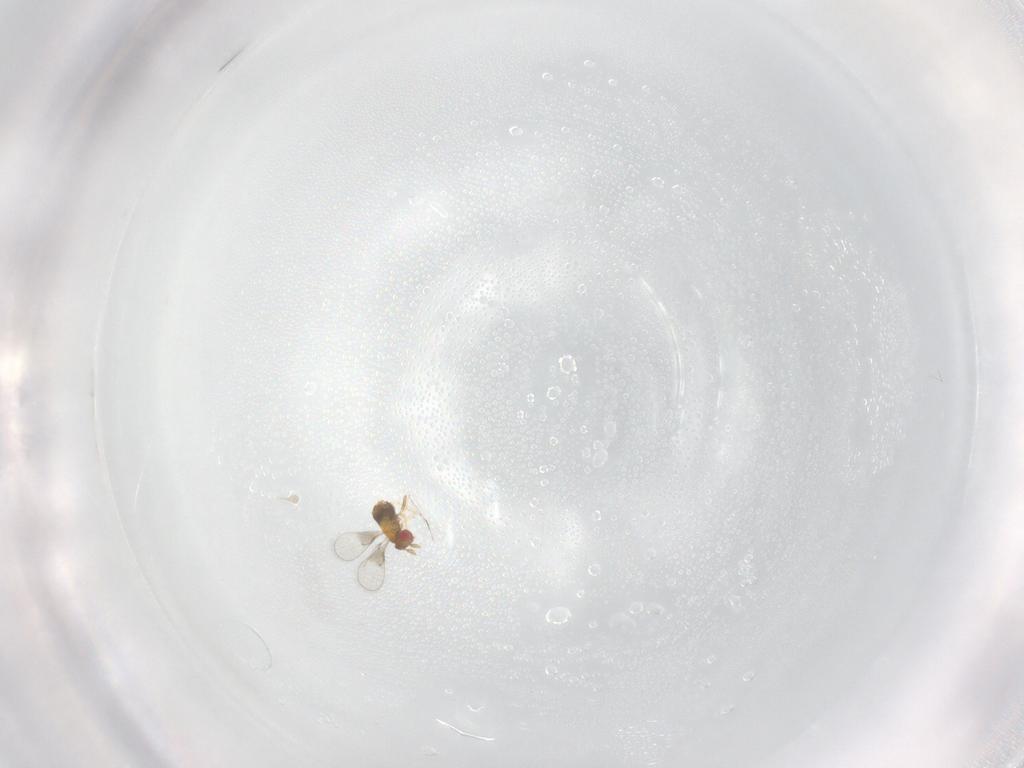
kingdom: Animalia
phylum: Arthropoda
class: Insecta
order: Hymenoptera
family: Trichogrammatidae
